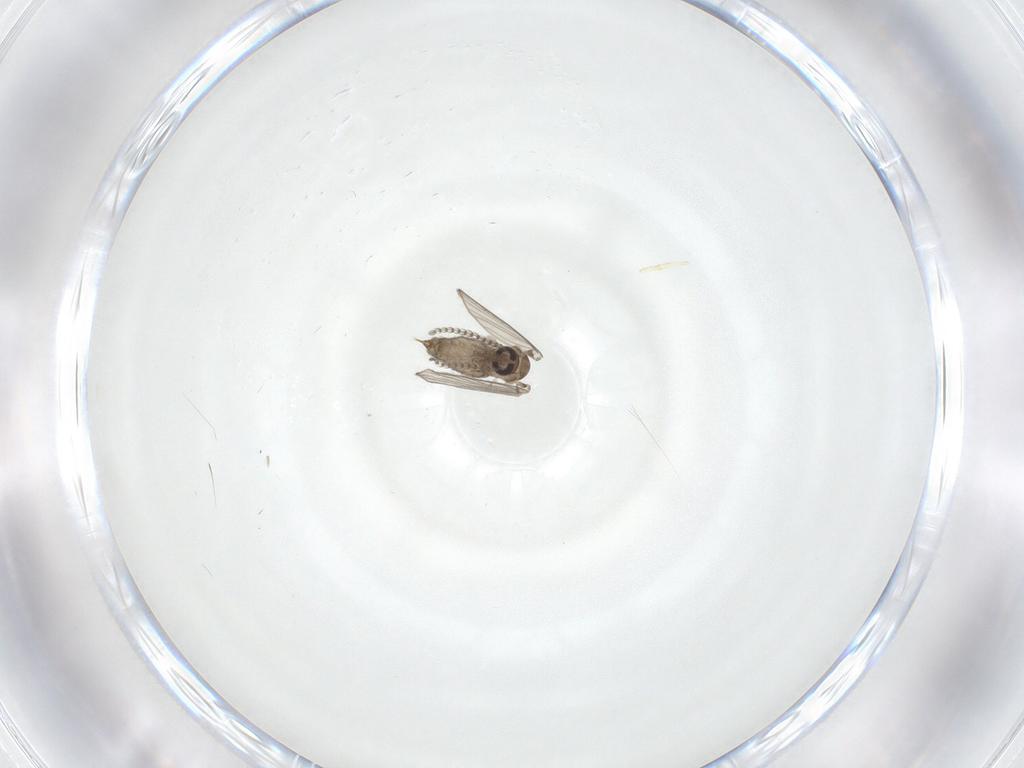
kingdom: Animalia
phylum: Arthropoda
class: Insecta
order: Diptera
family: Psychodidae
